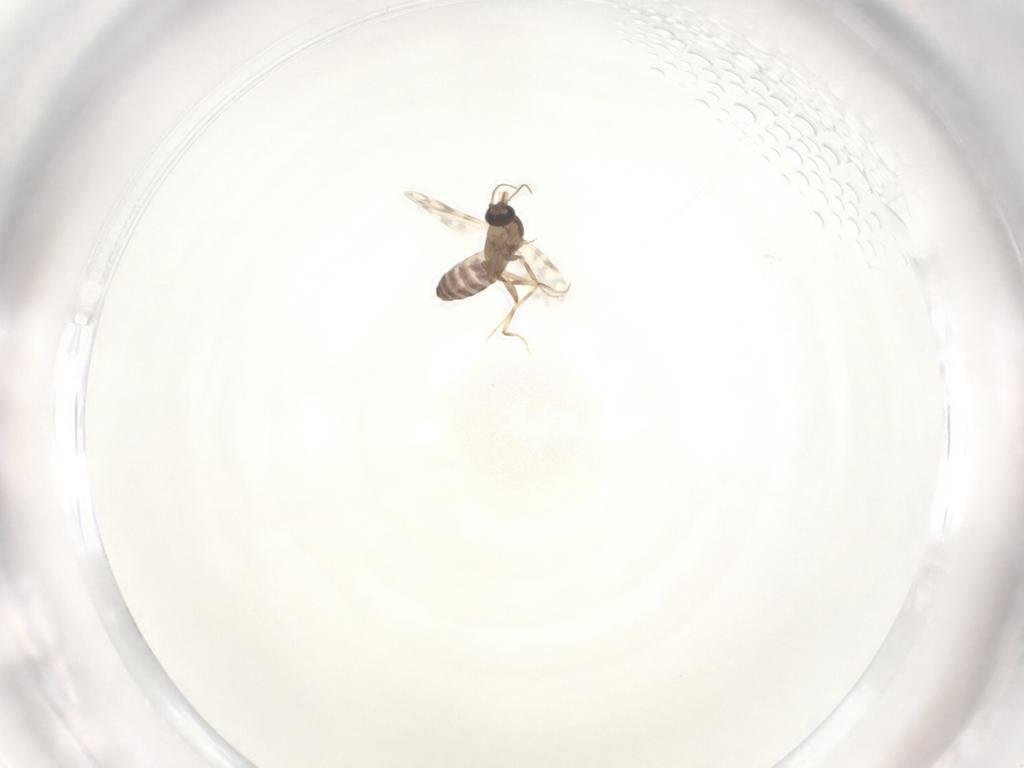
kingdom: Animalia
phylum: Arthropoda
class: Insecta
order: Diptera
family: Ceratopogonidae
